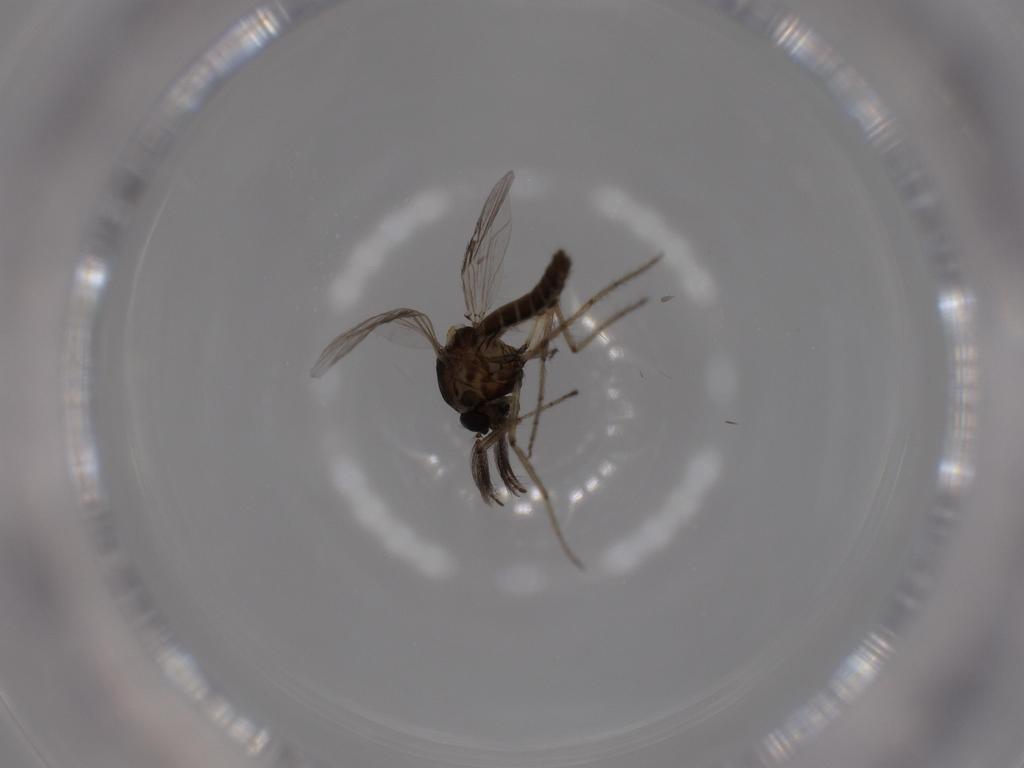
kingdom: Animalia
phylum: Arthropoda
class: Insecta
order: Diptera
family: Ceratopogonidae
